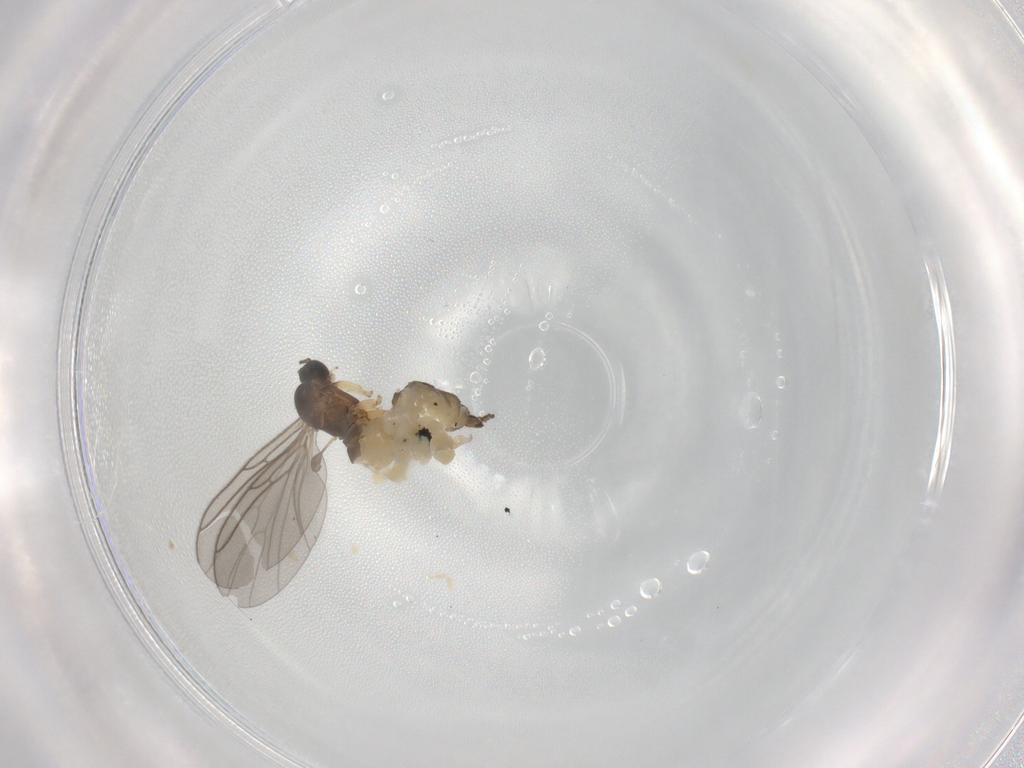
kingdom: Animalia
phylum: Arthropoda
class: Insecta
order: Diptera
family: Sciaridae
